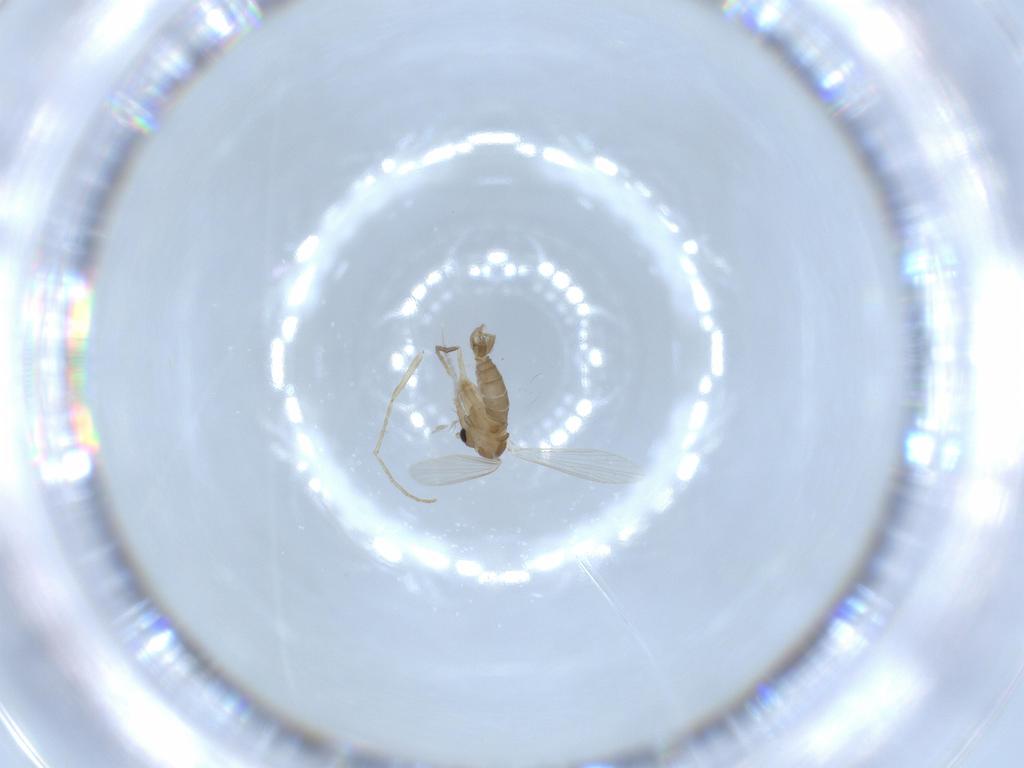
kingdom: Animalia
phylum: Arthropoda
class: Insecta
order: Diptera
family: Psychodidae
